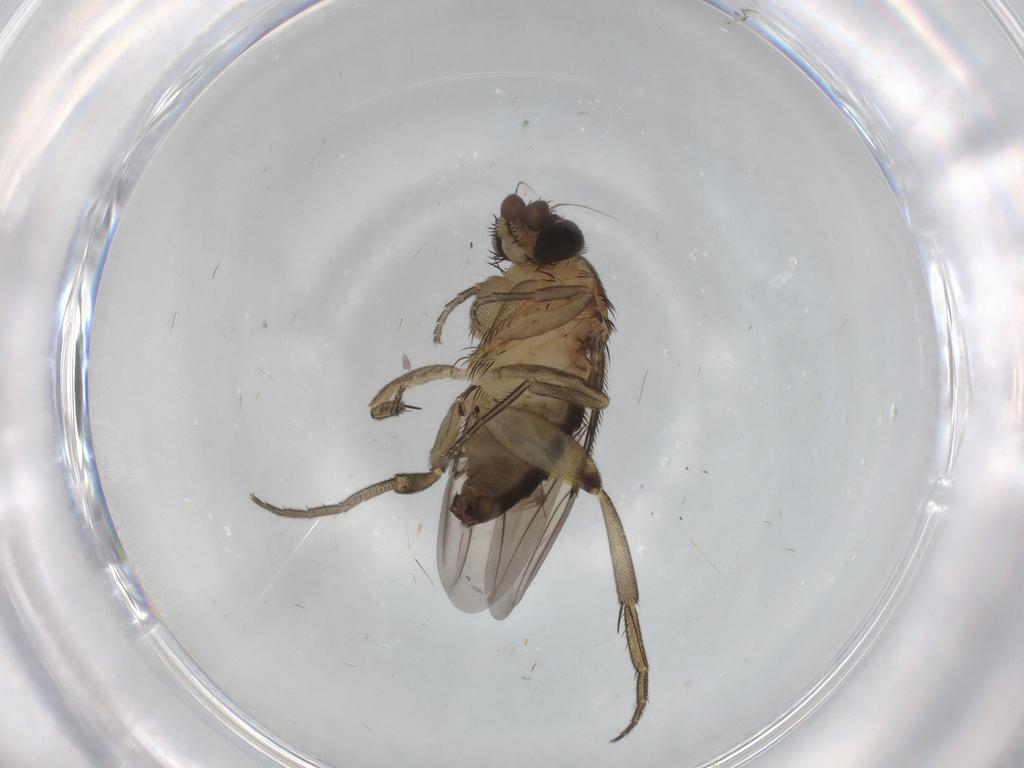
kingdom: Animalia
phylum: Arthropoda
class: Insecta
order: Diptera
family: Phoridae
